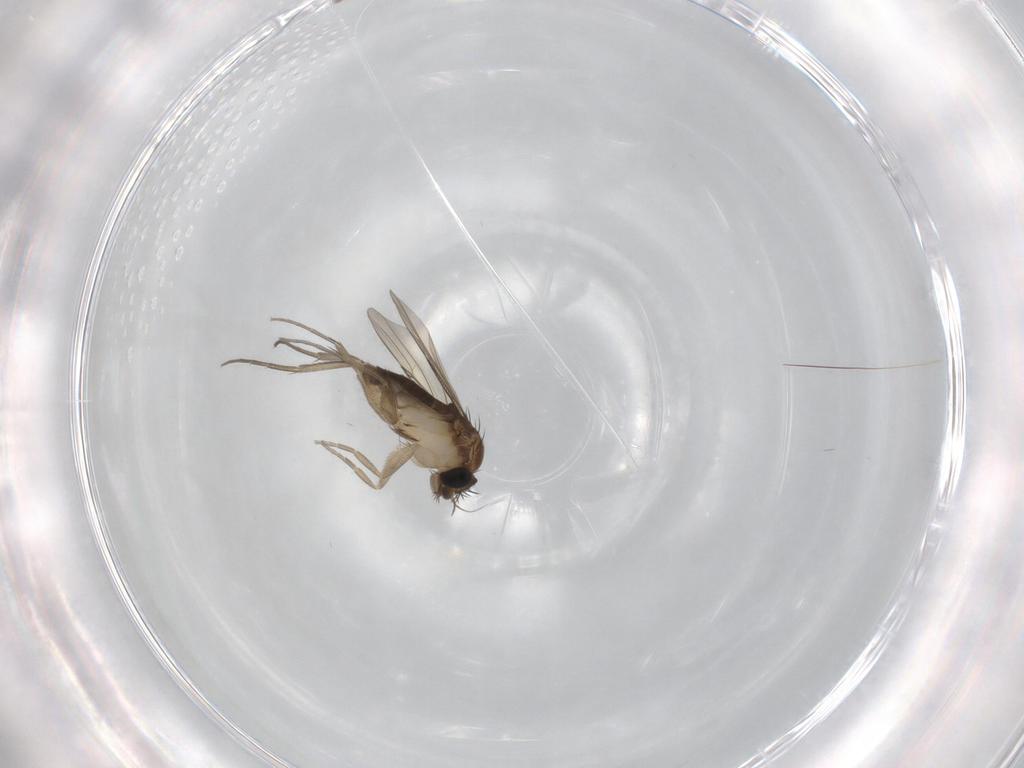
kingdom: Animalia
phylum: Arthropoda
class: Insecta
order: Diptera
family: Phoridae
